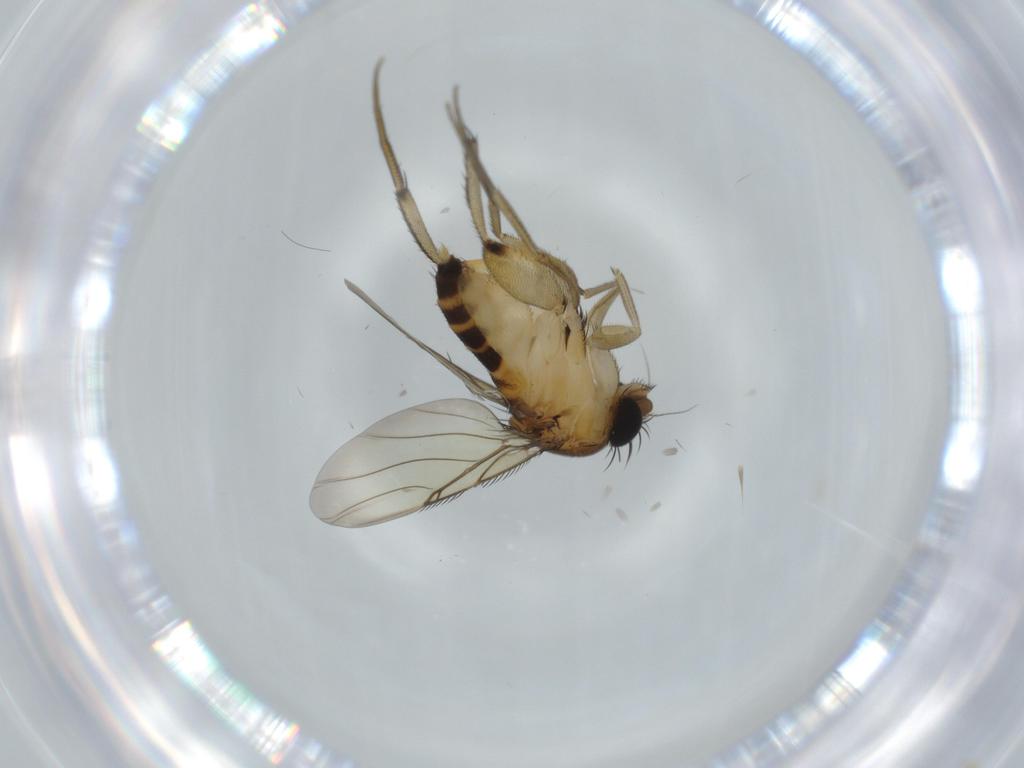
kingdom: Animalia
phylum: Arthropoda
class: Insecta
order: Diptera
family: Phoridae
